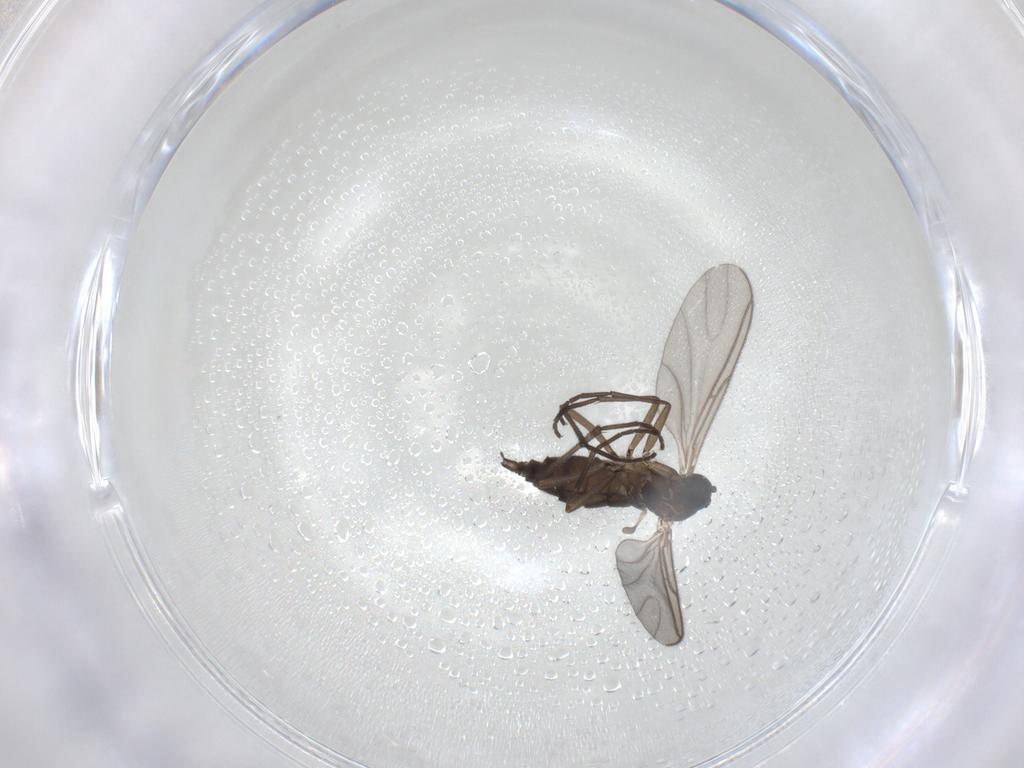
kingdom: Animalia
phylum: Arthropoda
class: Insecta
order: Diptera
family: Sciaridae
